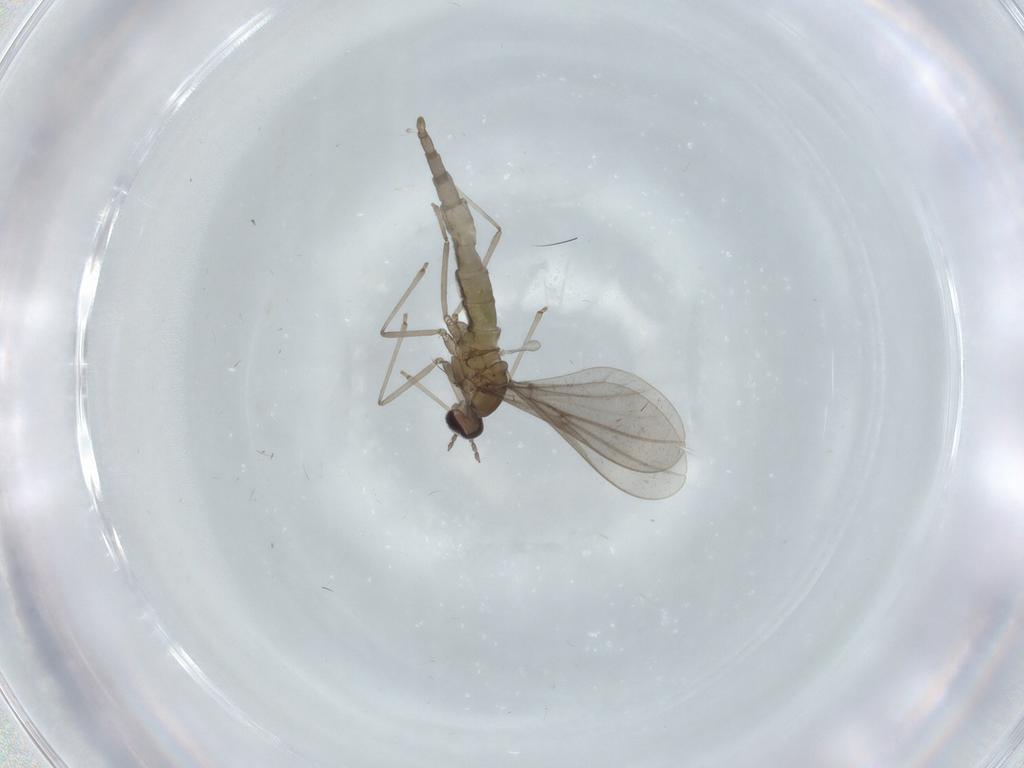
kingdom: Animalia
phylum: Arthropoda
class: Insecta
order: Diptera
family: Cecidomyiidae
